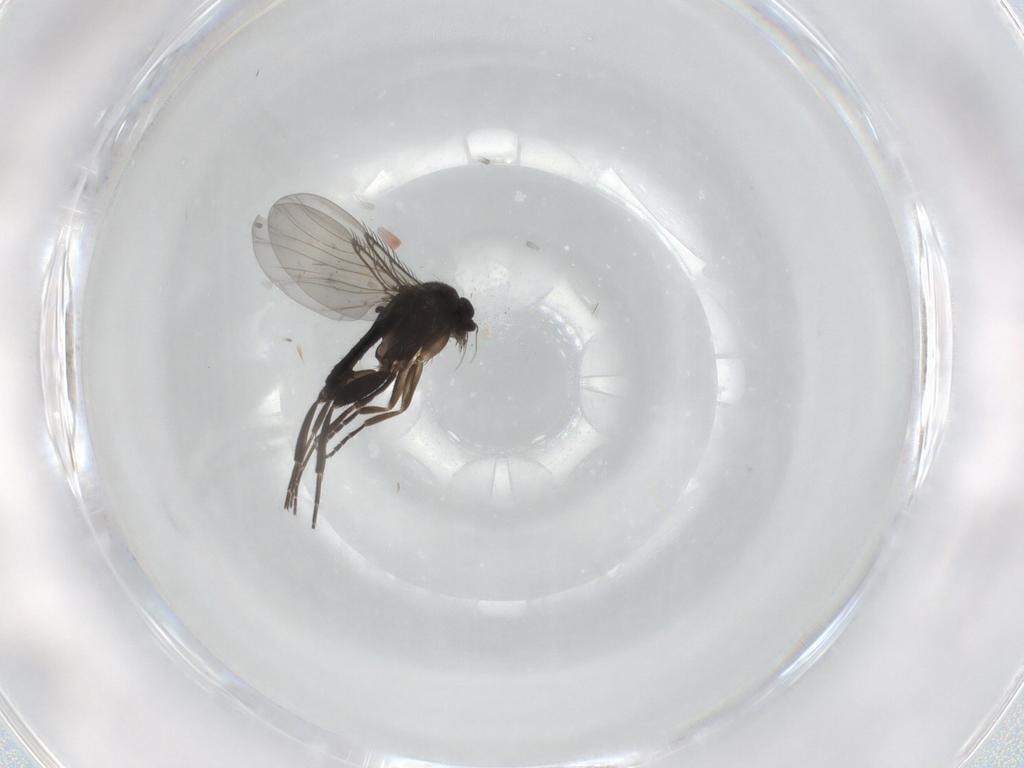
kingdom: Animalia
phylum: Arthropoda
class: Insecta
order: Diptera
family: Phoridae
